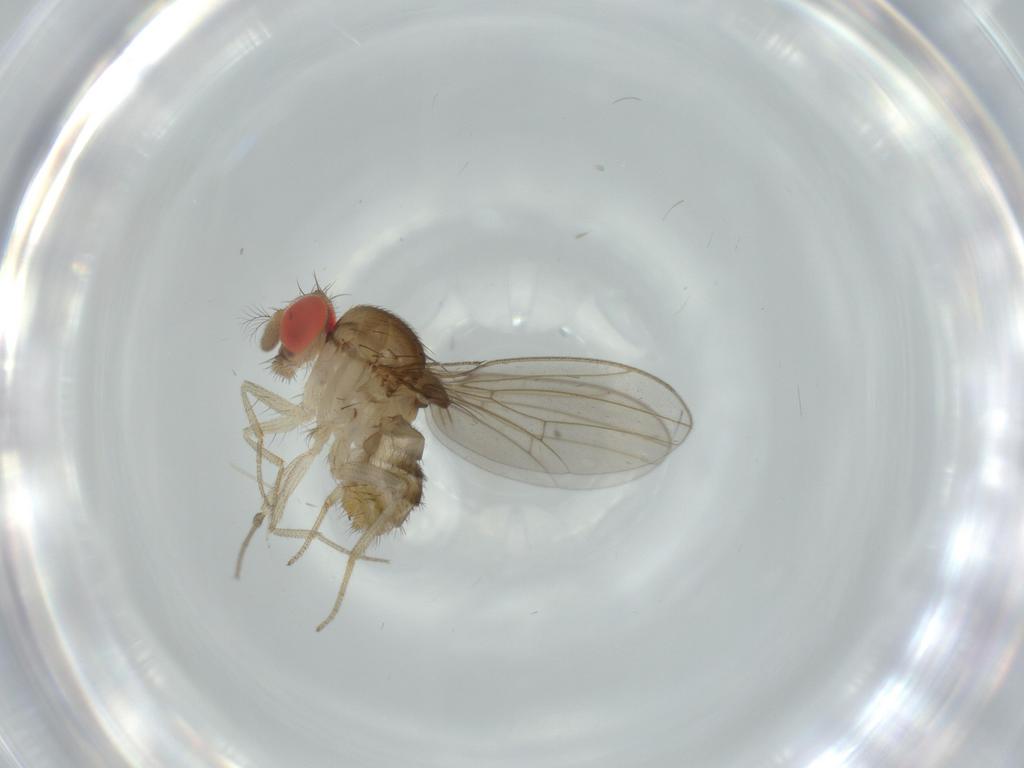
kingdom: Animalia
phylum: Arthropoda
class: Insecta
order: Diptera
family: Drosophilidae
